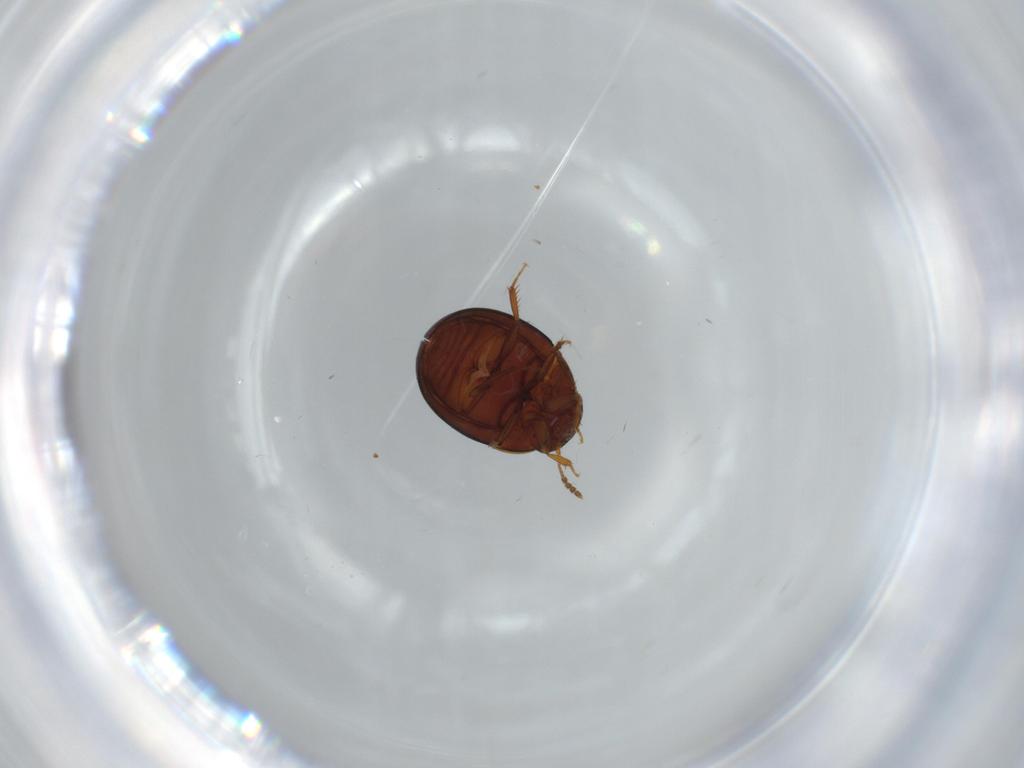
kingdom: Animalia
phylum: Arthropoda
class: Insecta
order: Coleoptera
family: Leiodidae
